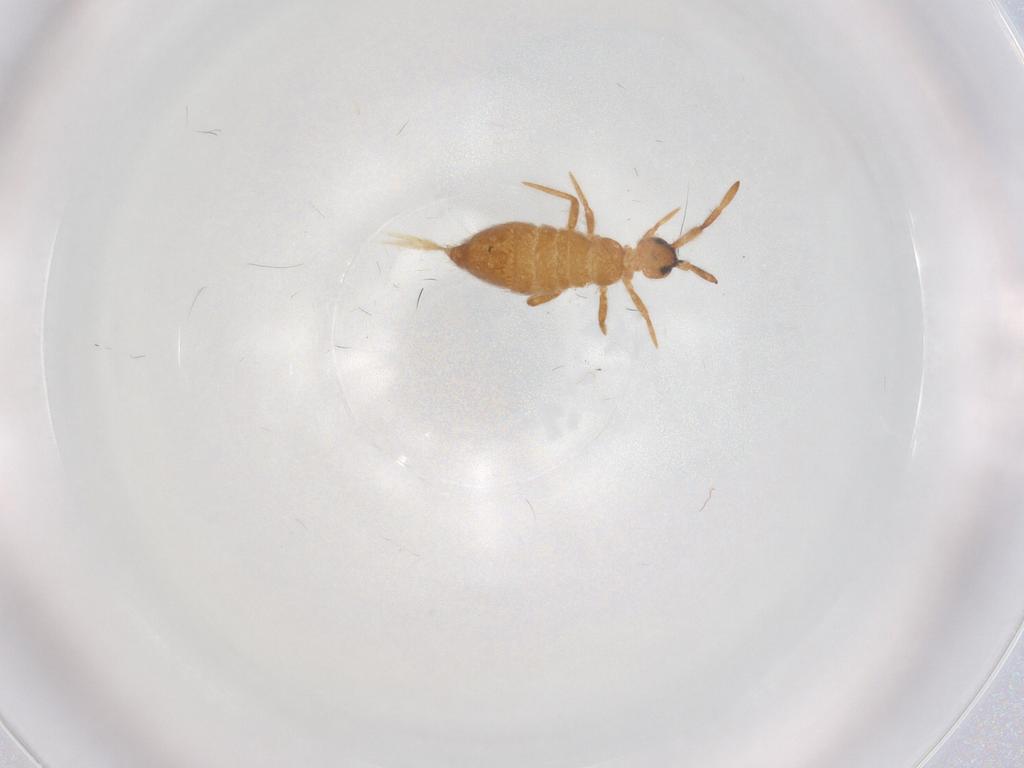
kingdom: Animalia
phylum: Arthropoda
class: Collembola
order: Entomobryomorpha
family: Entomobryidae
